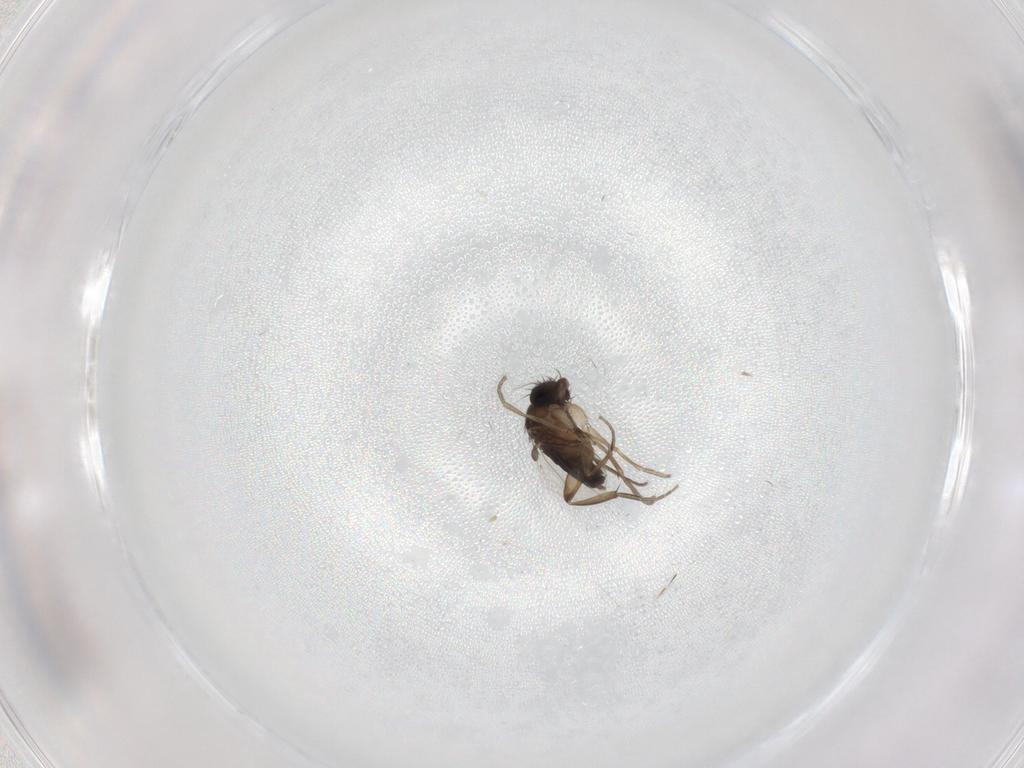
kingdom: Animalia
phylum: Arthropoda
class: Insecta
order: Diptera
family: Phoridae
